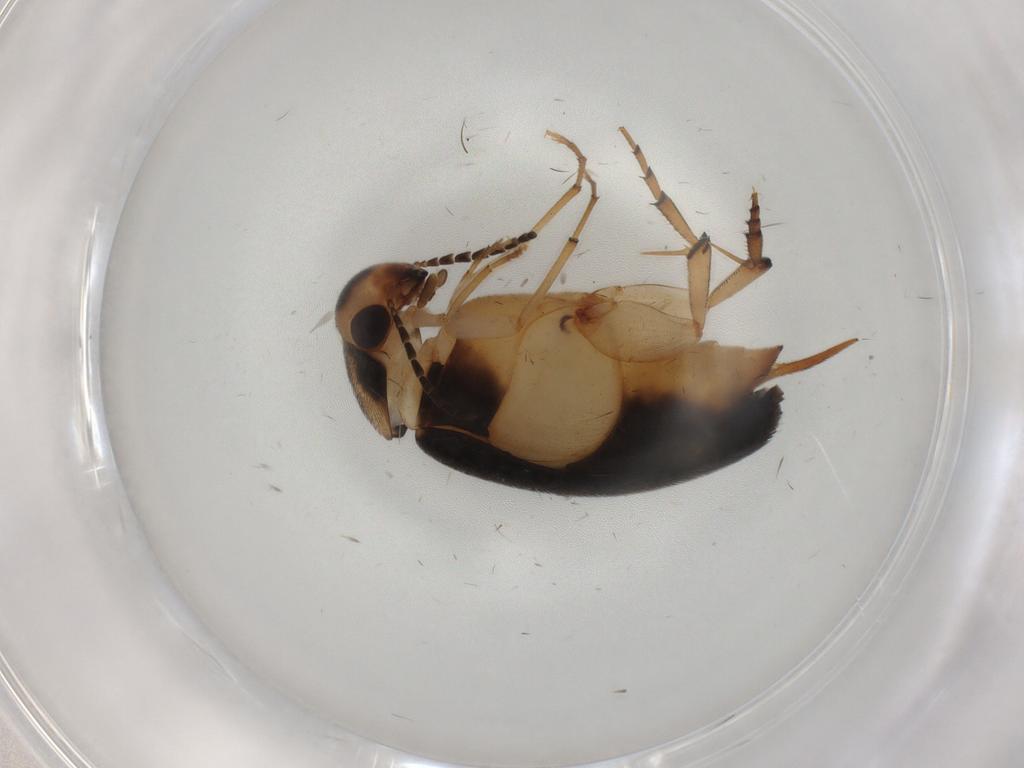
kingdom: Animalia
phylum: Arthropoda
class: Insecta
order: Coleoptera
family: Mordellidae
